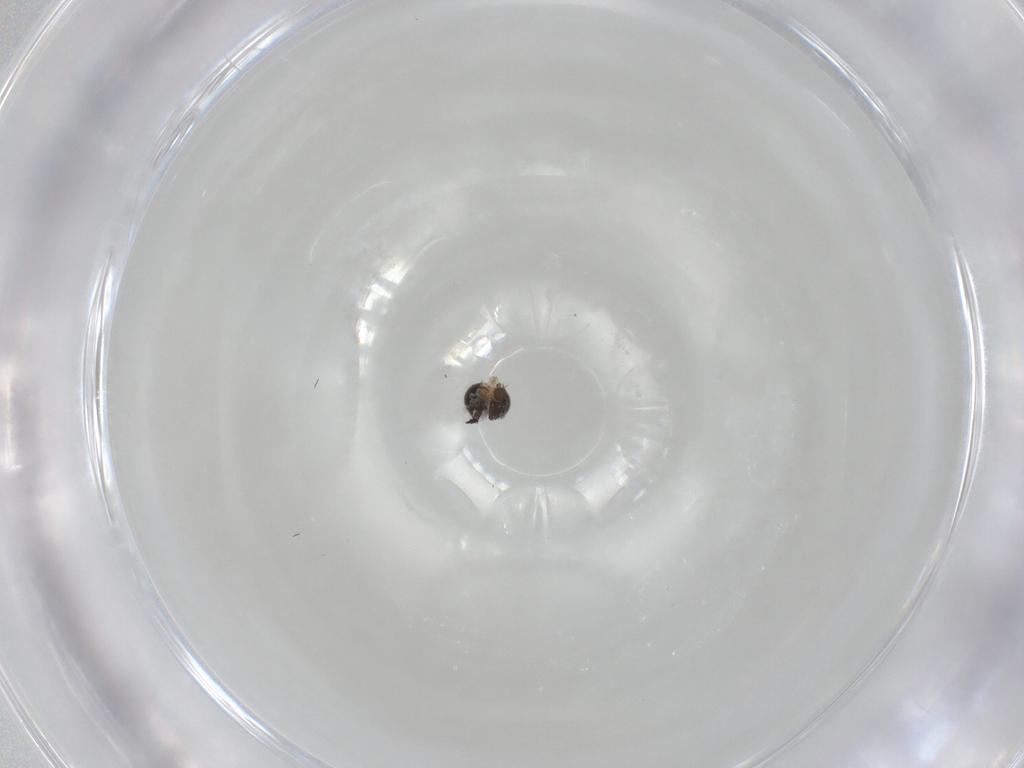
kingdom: Animalia
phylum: Arthropoda
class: Insecta
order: Diptera
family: Phoridae
